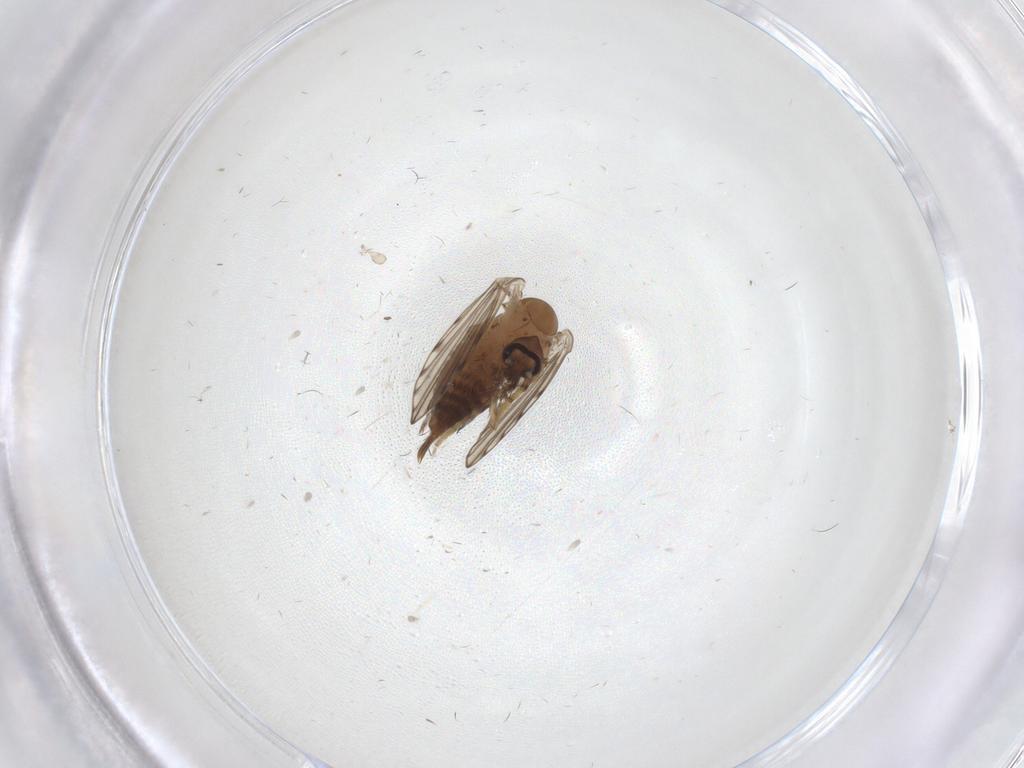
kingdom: Animalia
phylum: Arthropoda
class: Insecta
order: Diptera
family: Psychodidae
